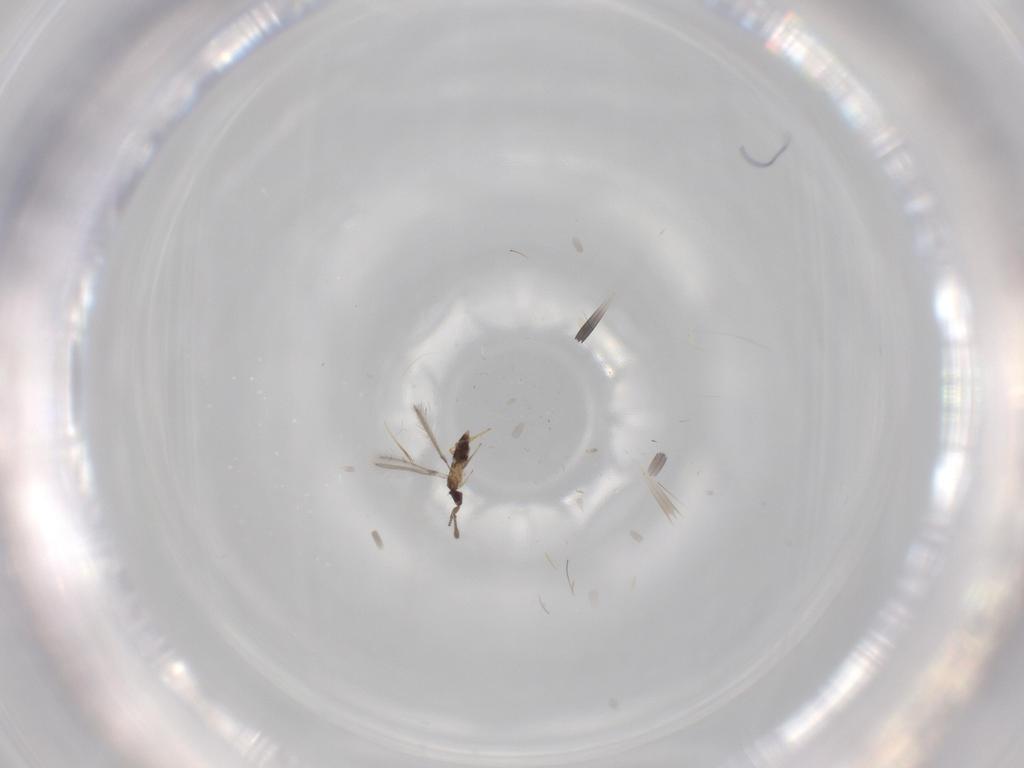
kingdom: Animalia
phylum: Arthropoda
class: Insecta
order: Hymenoptera
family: Mymaridae
